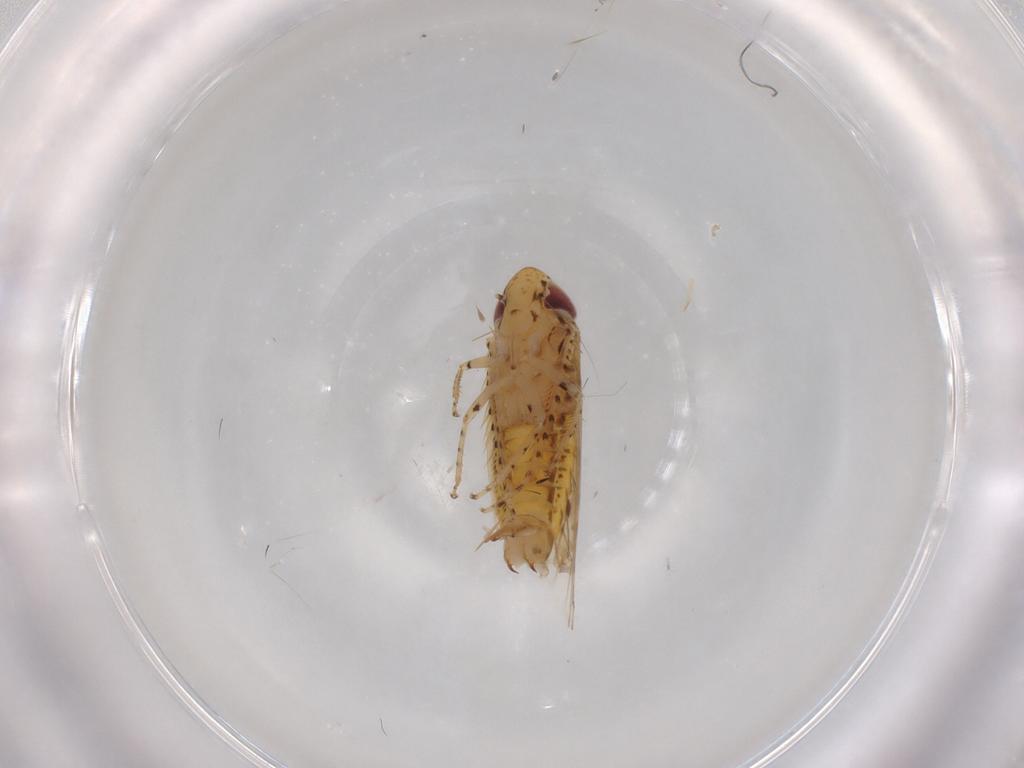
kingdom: Animalia
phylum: Arthropoda
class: Insecta
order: Hemiptera
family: Cicadellidae
